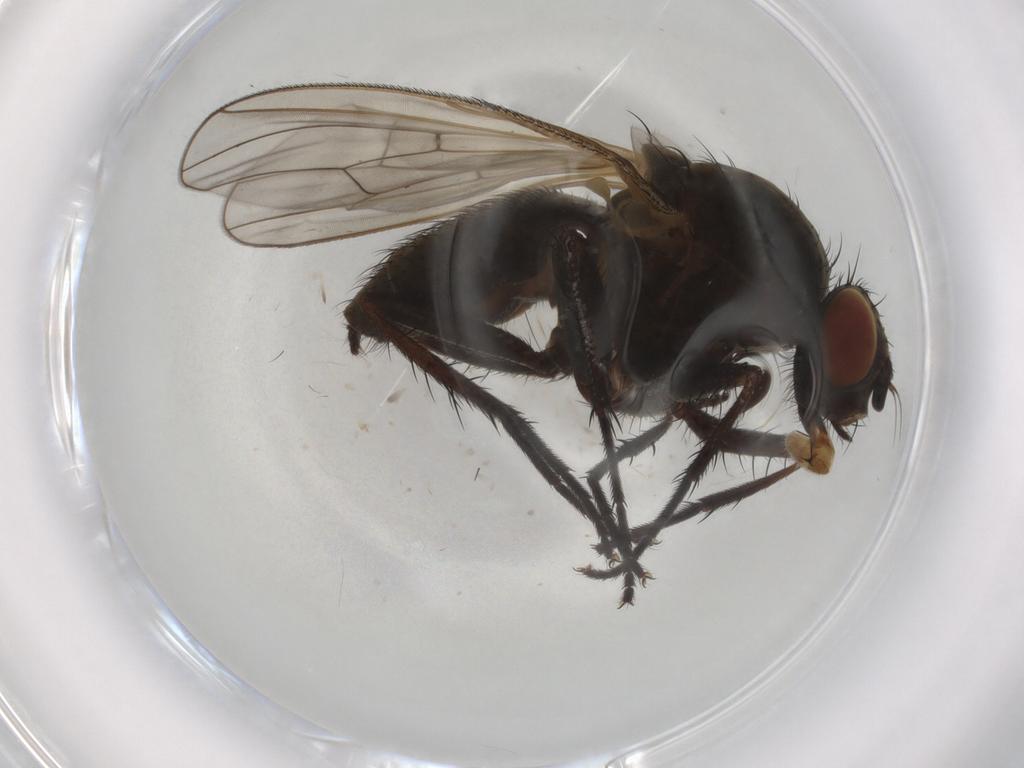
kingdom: Animalia
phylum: Arthropoda
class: Insecta
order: Diptera
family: Anthomyiidae
